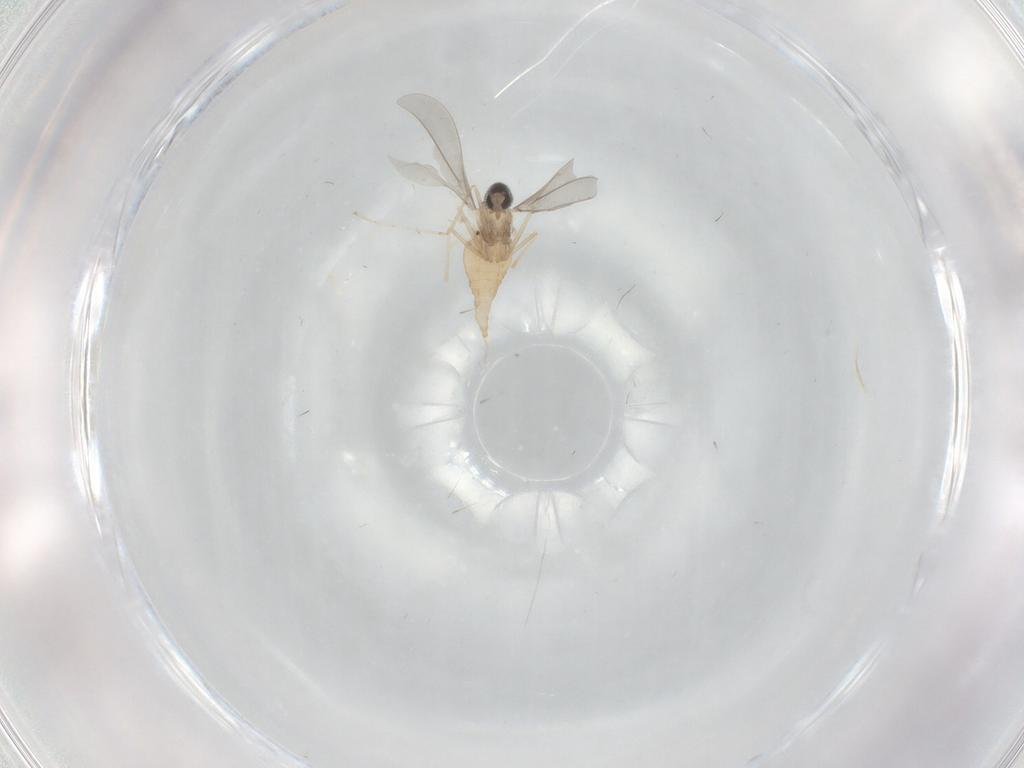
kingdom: Animalia
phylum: Arthropoda
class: Insecta
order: Diptera
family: Cecidomyiidae
